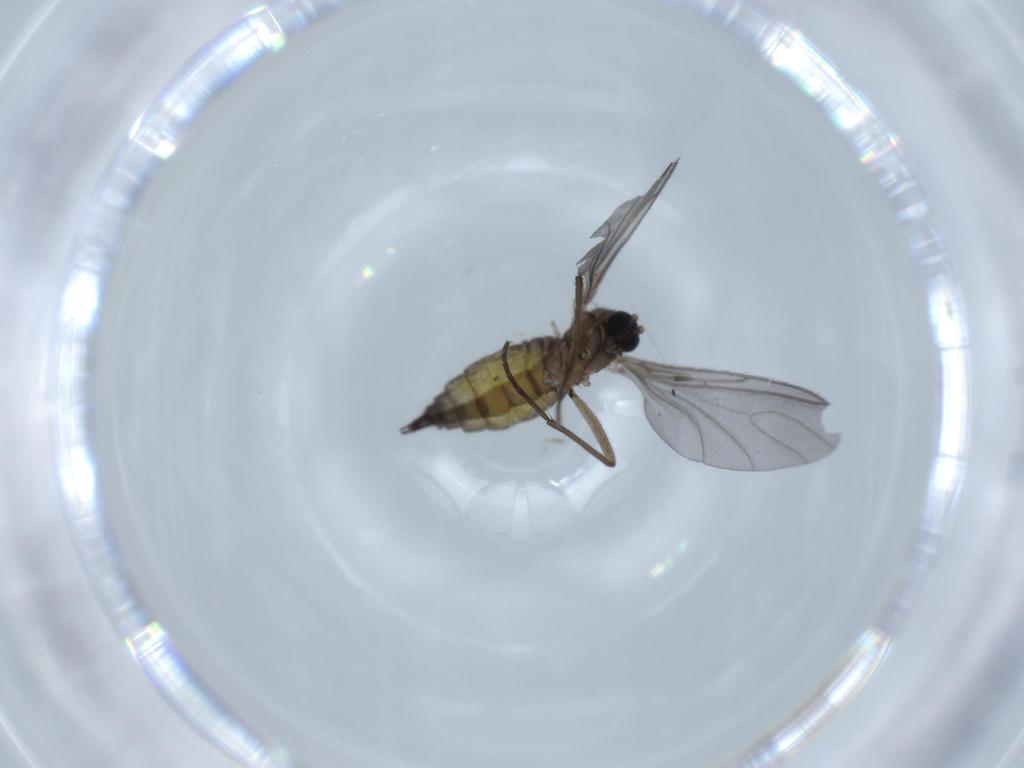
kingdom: Animalia
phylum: Arthropoda
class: Insecta
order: Diptera
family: Sciaridae
